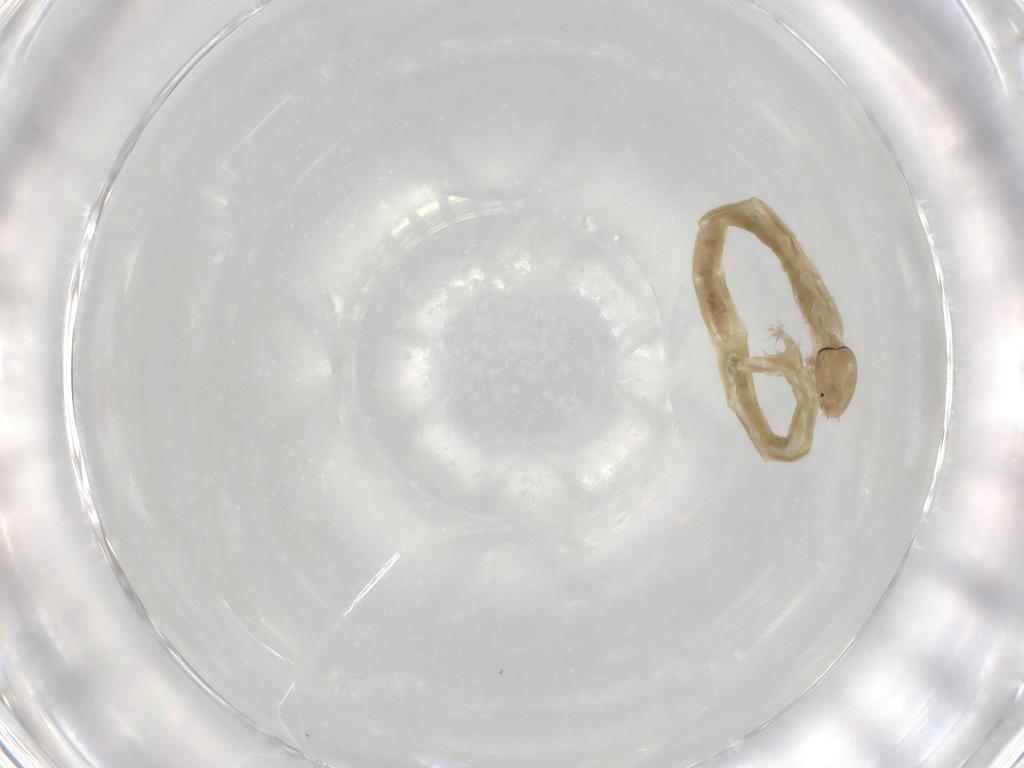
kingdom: Animalia
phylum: Arthropoda
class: Insecta
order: Diptera
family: Chironomidae
